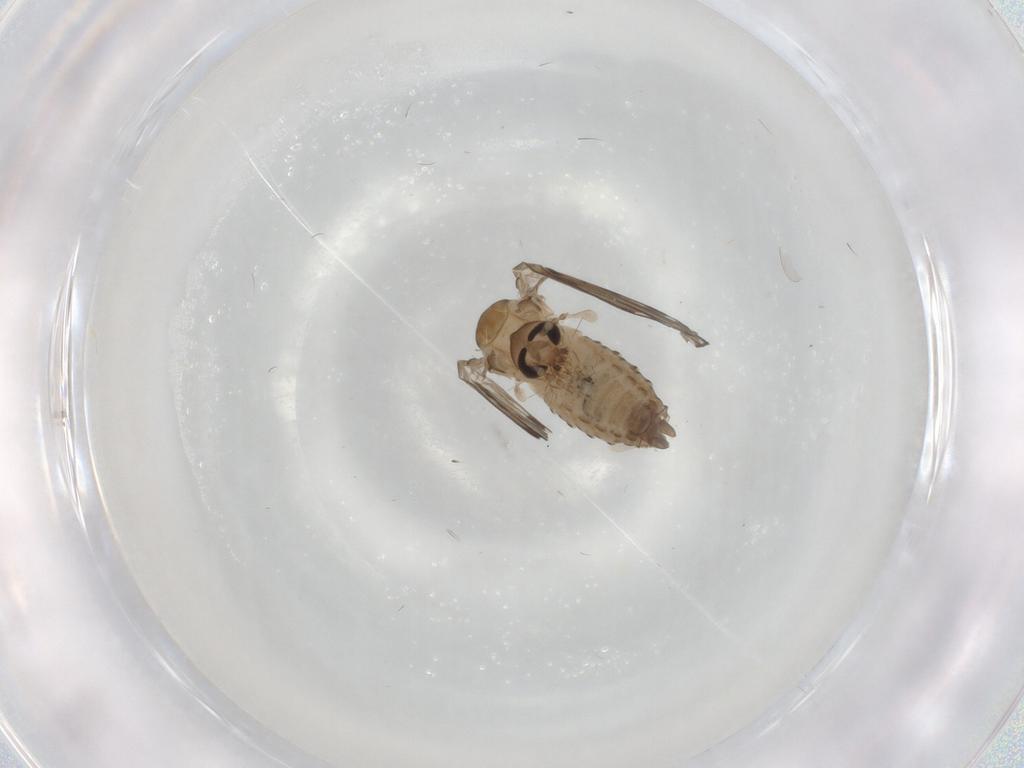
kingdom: Animalia
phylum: Arthropoda
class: Insecta
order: Diptera
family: Psychodidae
